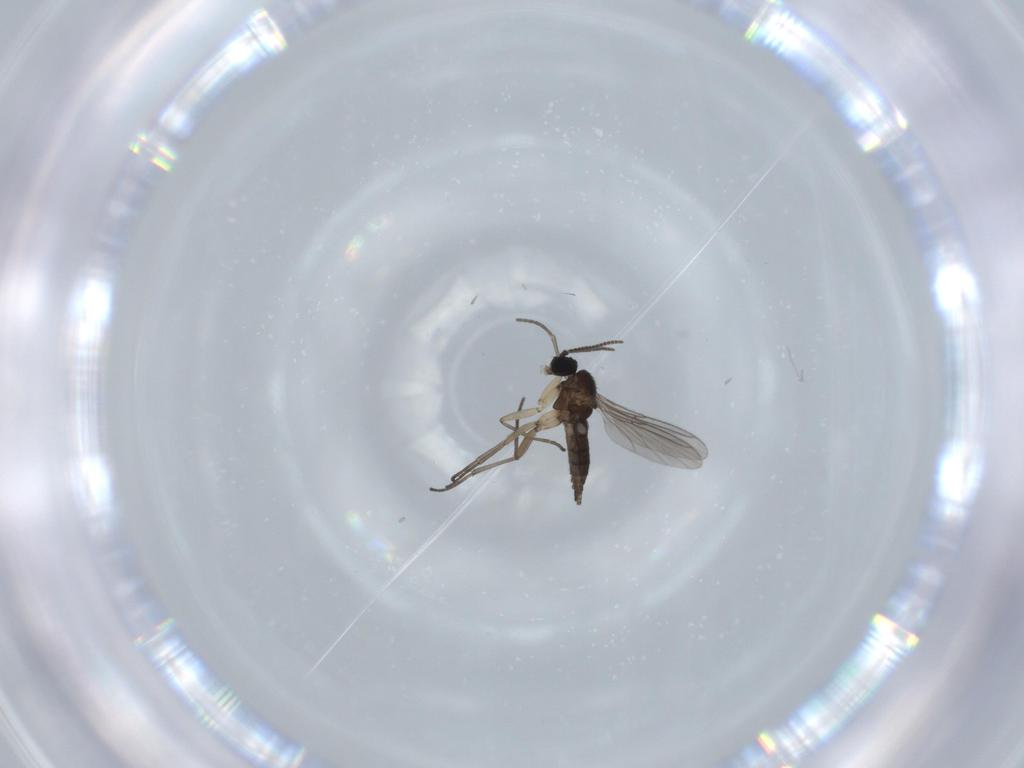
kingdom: Animalia
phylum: Arthropoda
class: Insecta
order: Diptera
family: Sciaridae
